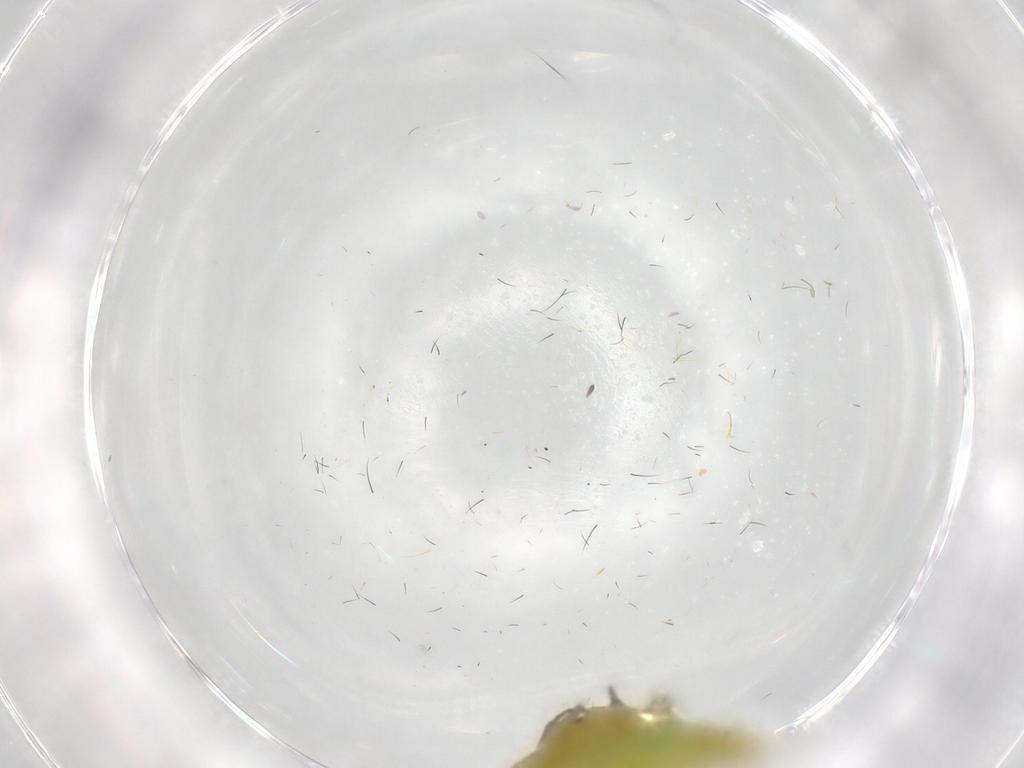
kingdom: Animalia
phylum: Arthropoda
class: Insecta
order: Hemiptera
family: Cicadellidae
